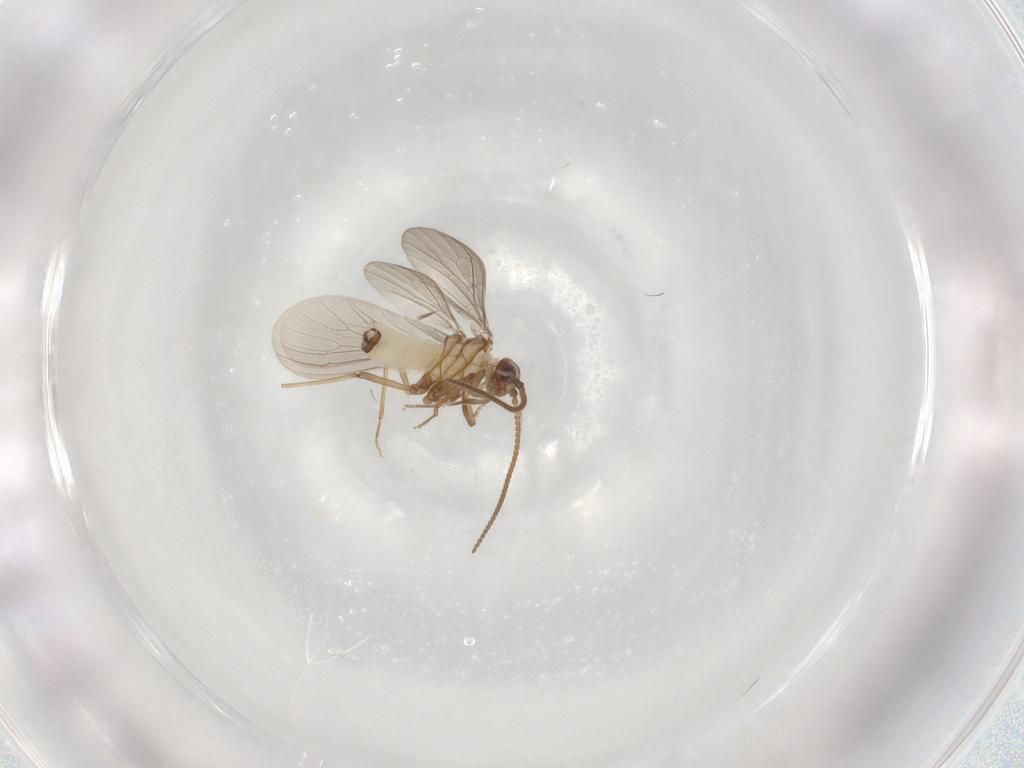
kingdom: Animalia
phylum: Arthropoda
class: Insecta
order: Neuroptera
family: Coniopterygidae
